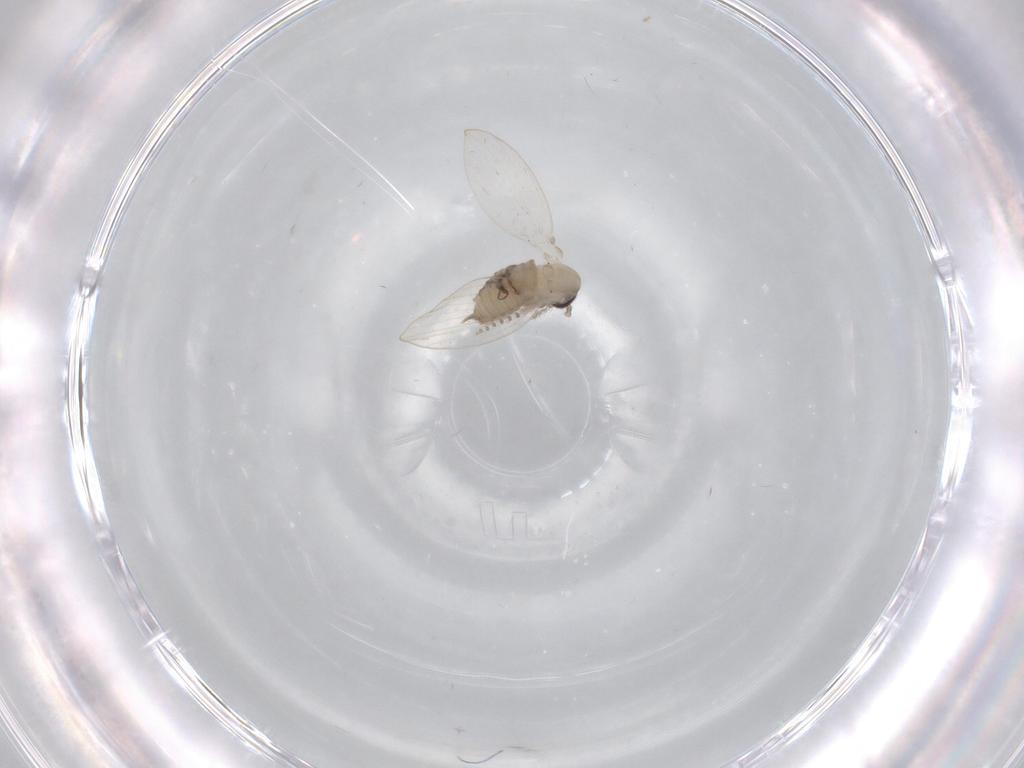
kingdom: Animalia
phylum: Arthropoda
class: Insecta
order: Diptera
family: Psychodidae
